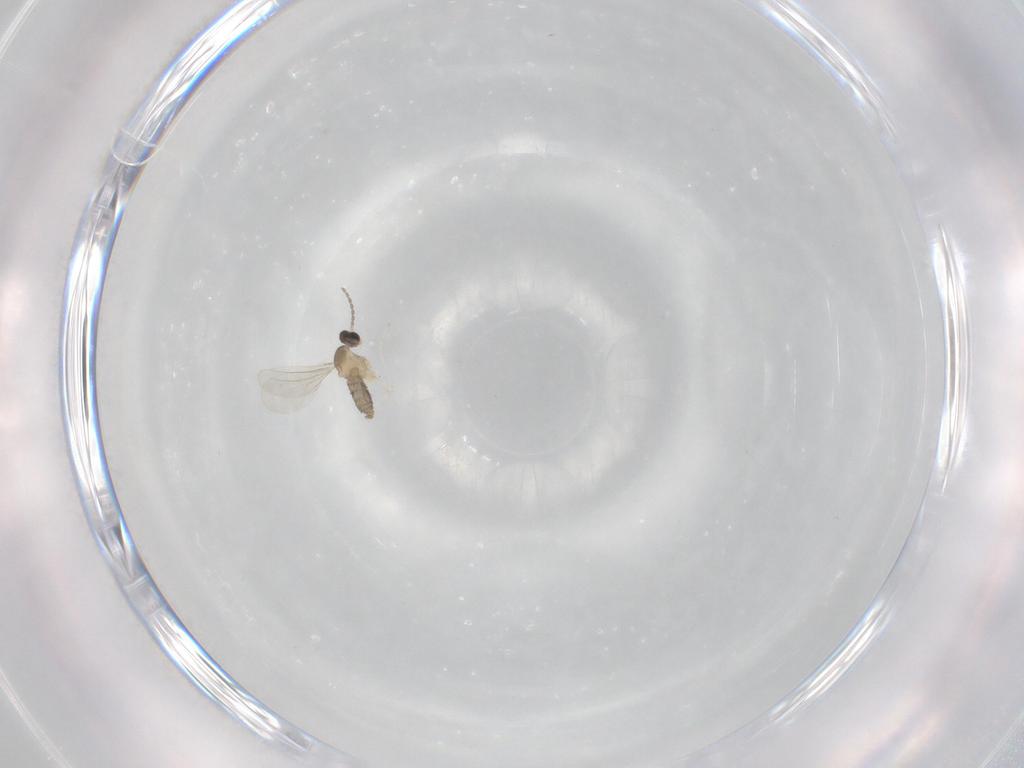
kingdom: Animalia
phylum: Arthropoda
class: Insecta
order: Diptera
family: Cecidomyiidae
